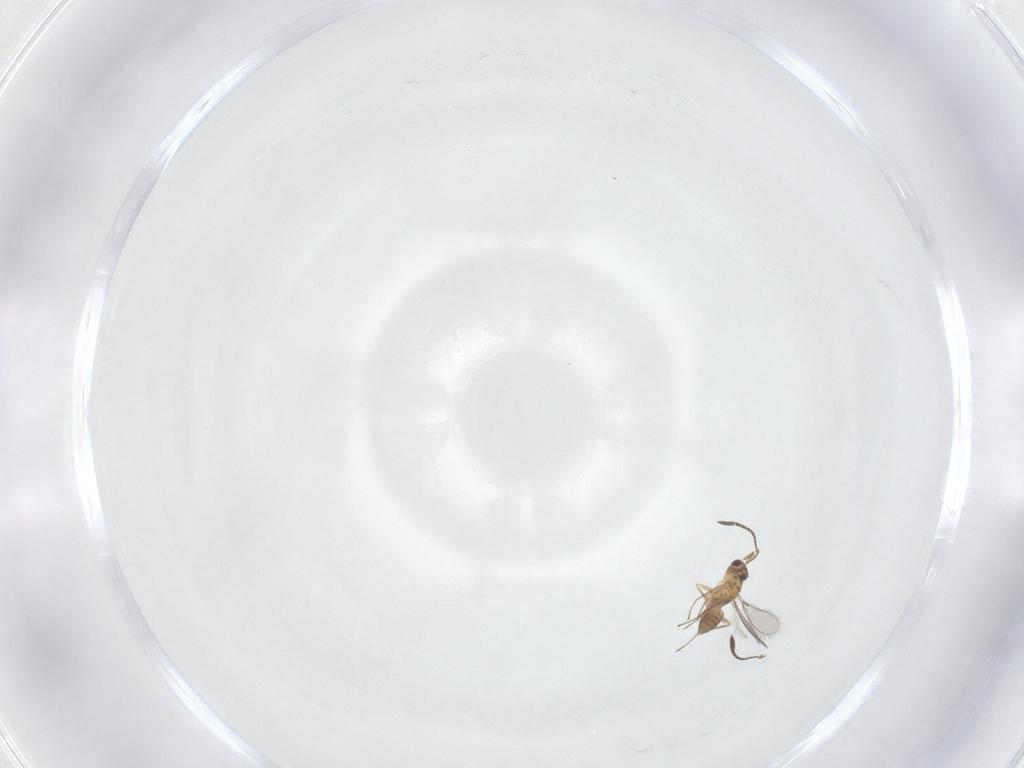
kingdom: Animalia
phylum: Arthropoda
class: Insecta
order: Hymenoptera
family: Mymaridae
